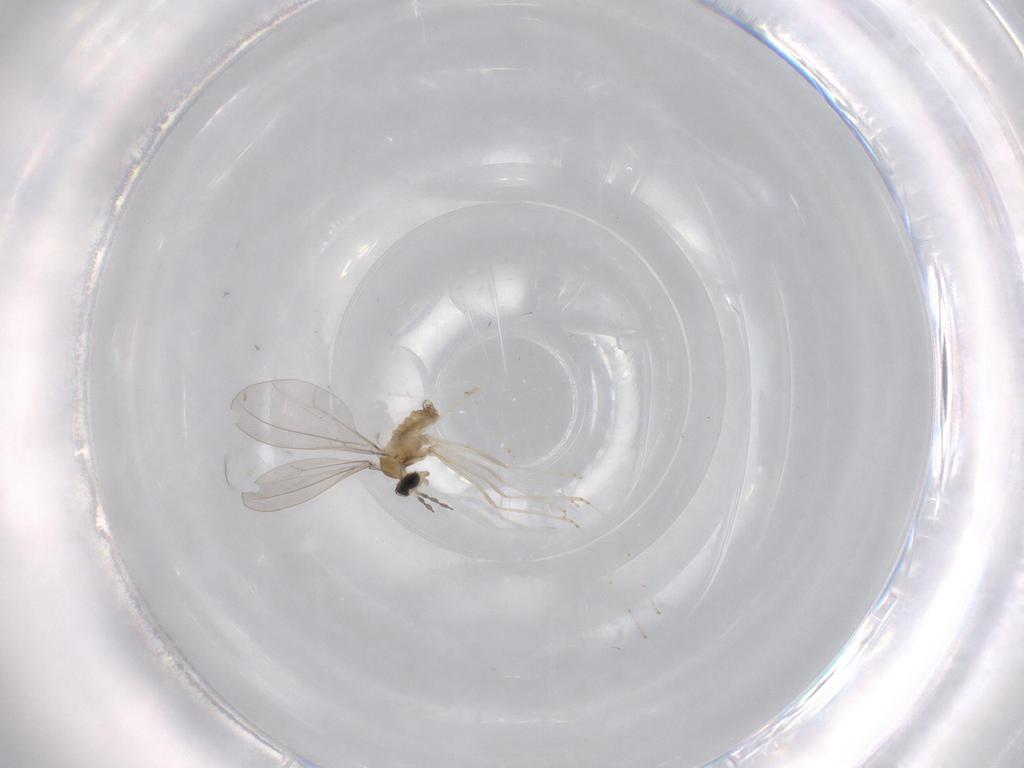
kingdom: Animalia
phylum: Arthropoda
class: Insecta
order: Diptera
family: Cecidomyiidae
